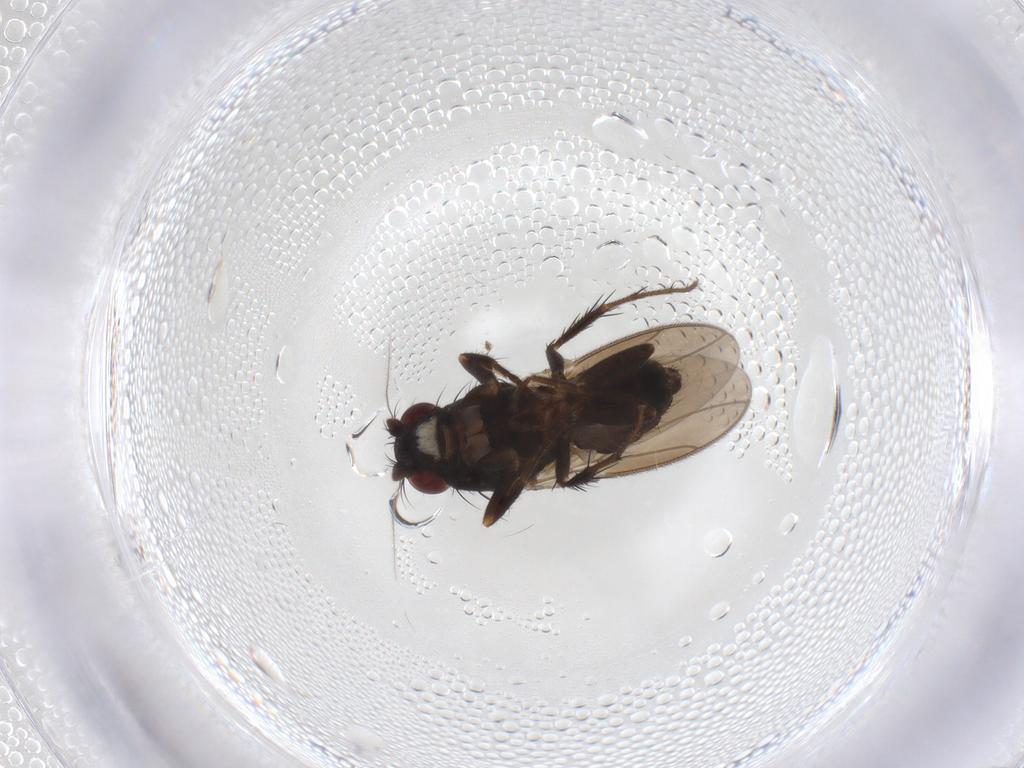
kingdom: Animalia
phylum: Arthropoda
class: Insecta
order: Diptera
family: Sphaeroceridae
